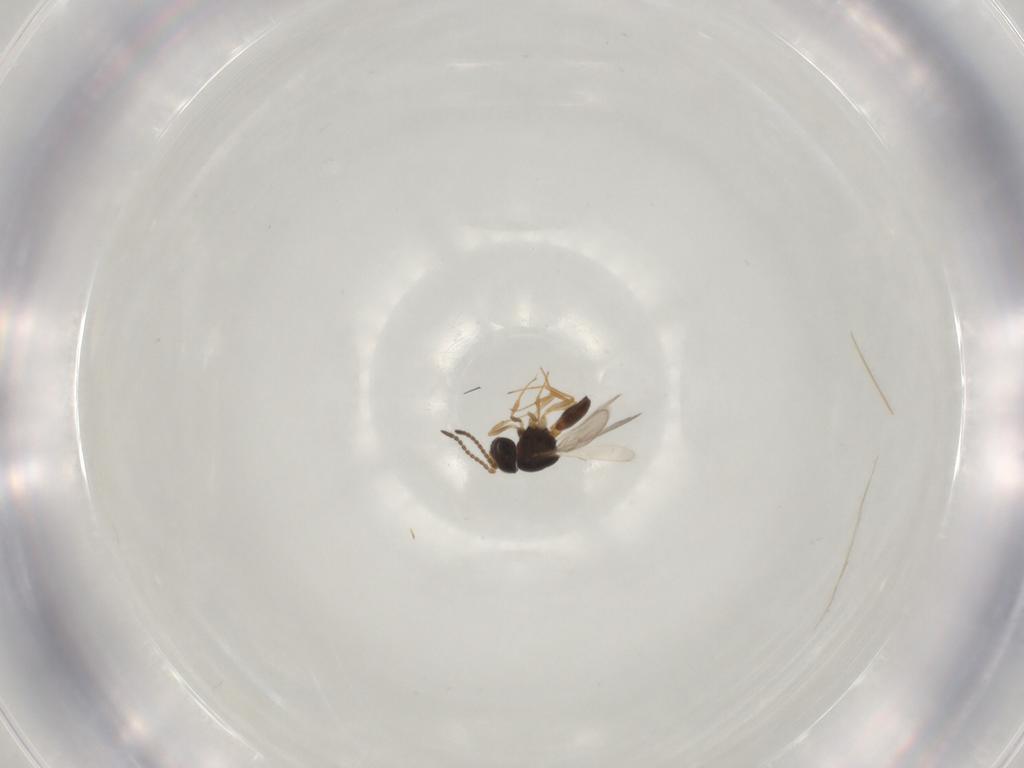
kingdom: Animalia
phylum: Arthropoda
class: Insecta
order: Hymenoptera
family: Scelionidae
